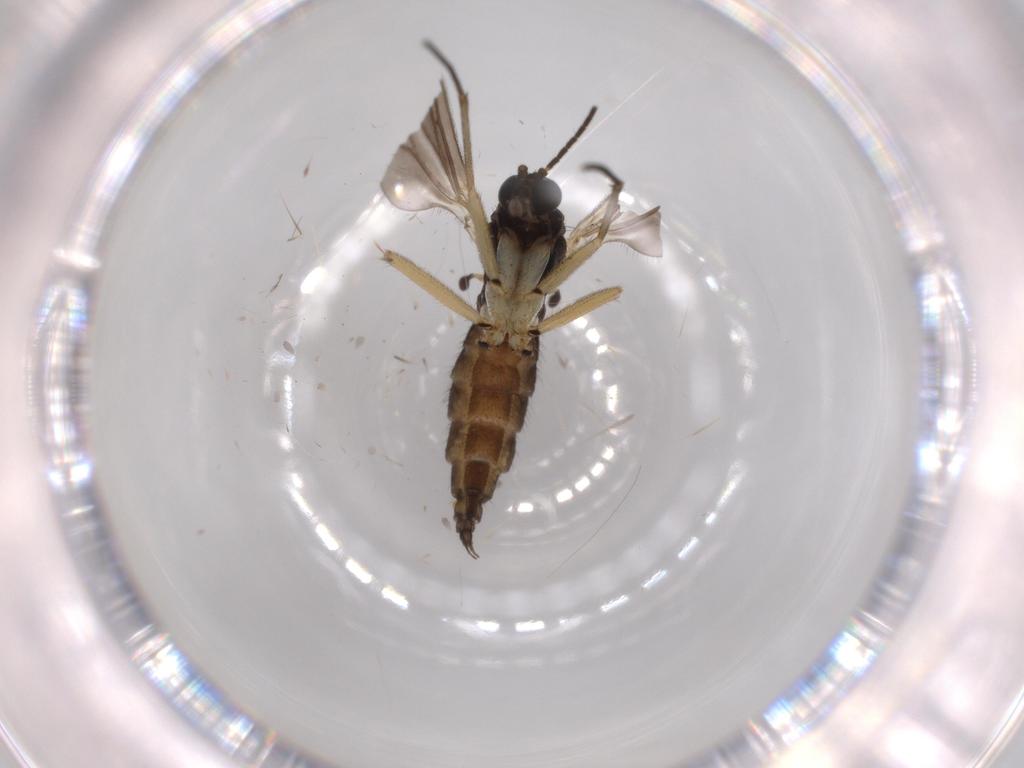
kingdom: Animalia
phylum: Arthropoda
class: Insecta
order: Diptera
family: Sciaridae
